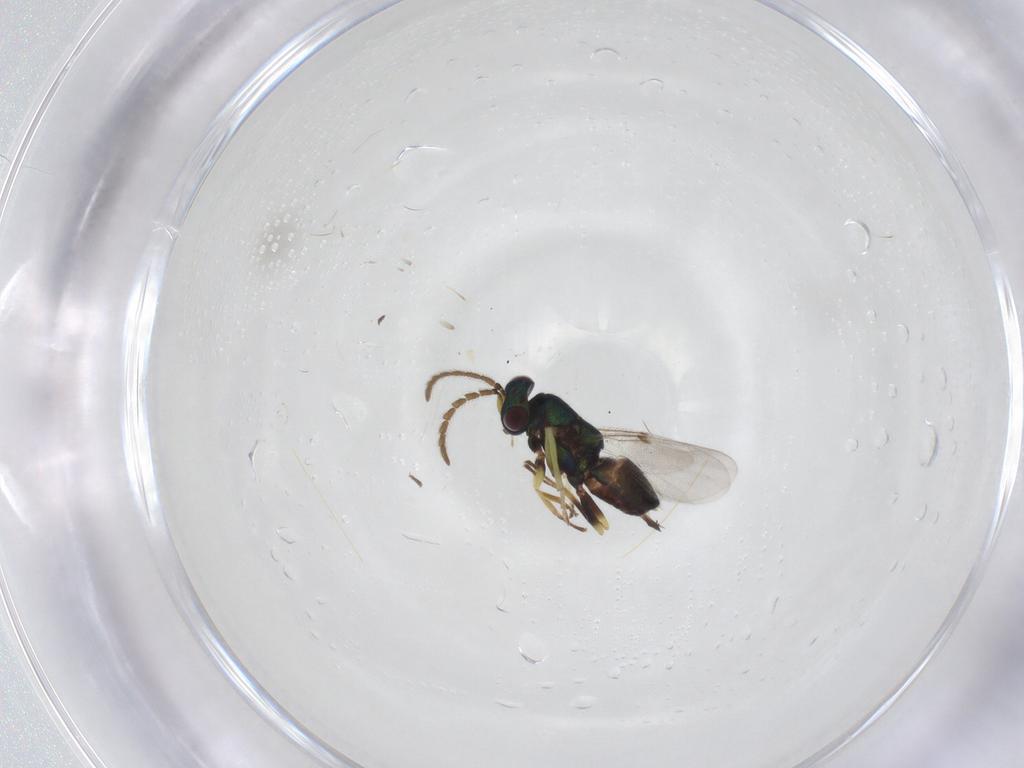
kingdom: Animalia
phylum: Arthropoda
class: Insecta
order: Hymenoptera
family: Encyrtidae
